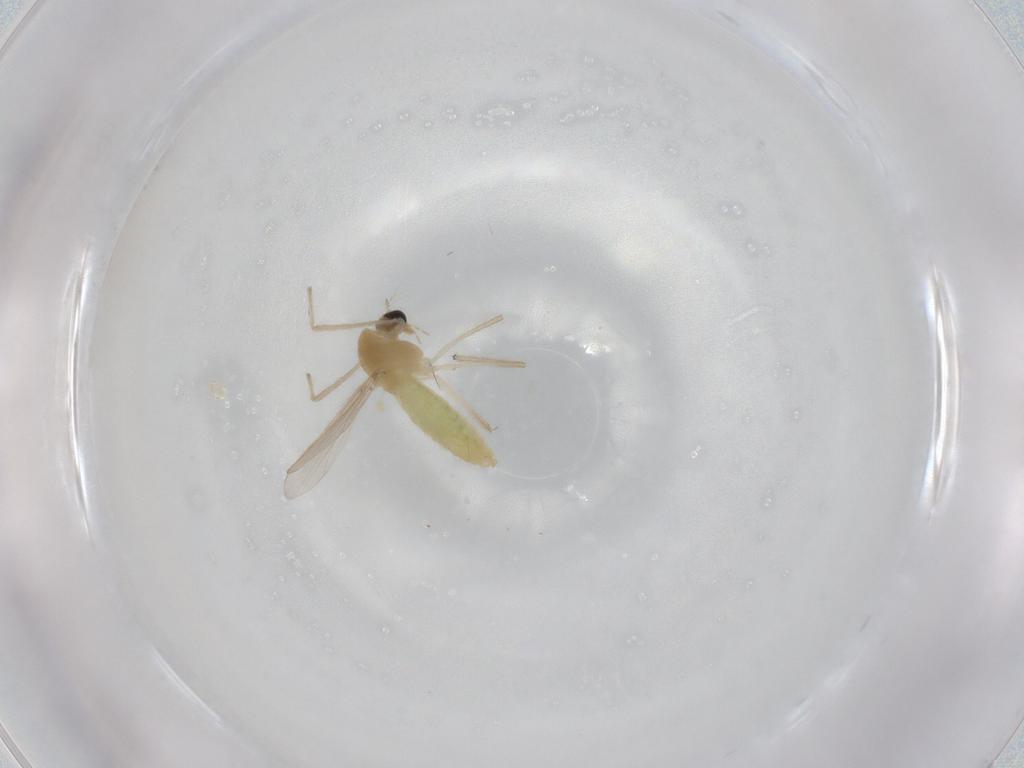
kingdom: Animalia
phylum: Arthropoda
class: Insecta
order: Diptera
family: Chironomidae
